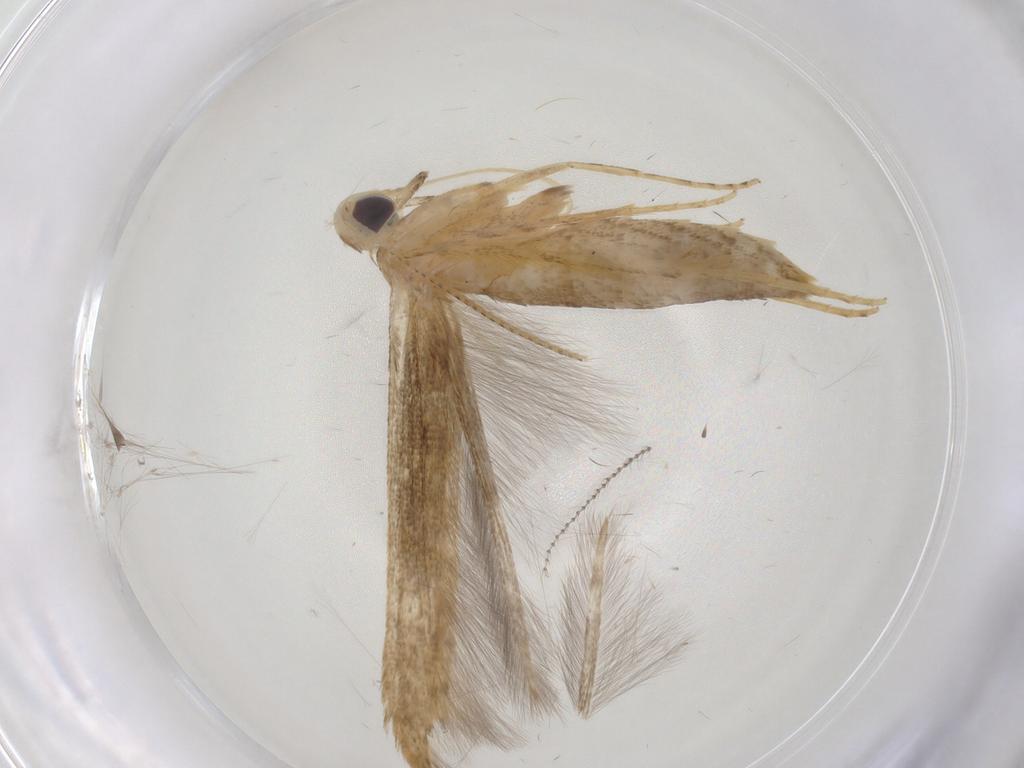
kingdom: Animalia
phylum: Arthropoda
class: Insecta
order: Lepidoptera
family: Batrachedridae
